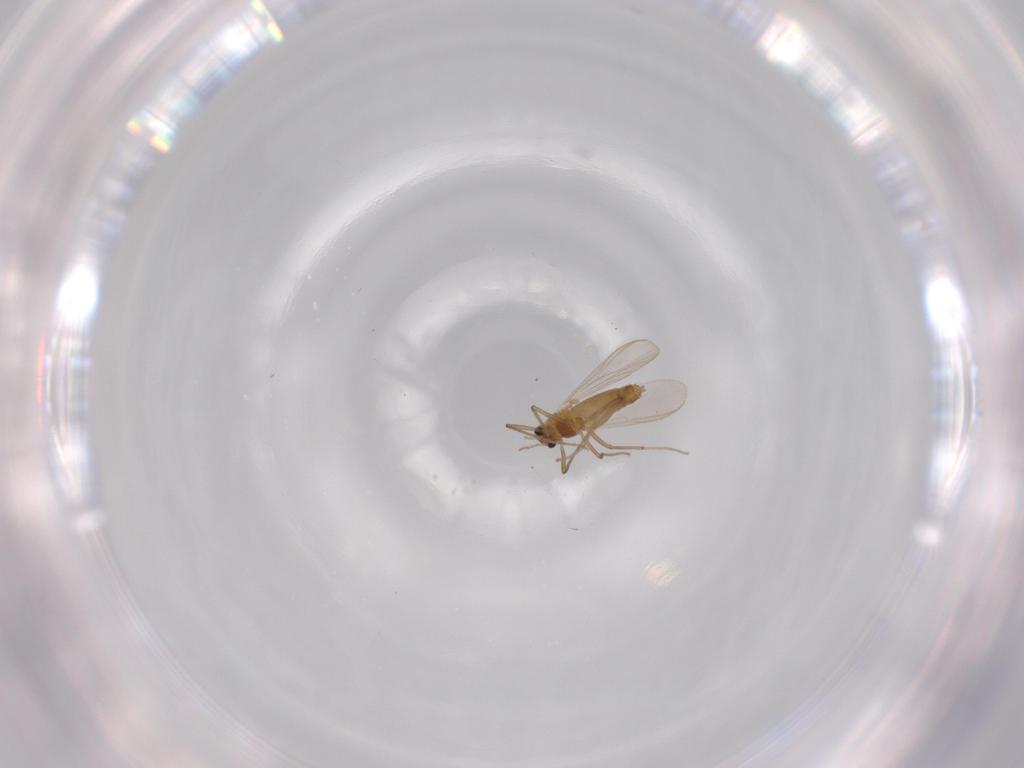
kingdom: Animalia
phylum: Arthropoda
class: Insecta
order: Diptera
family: Chironomidae
